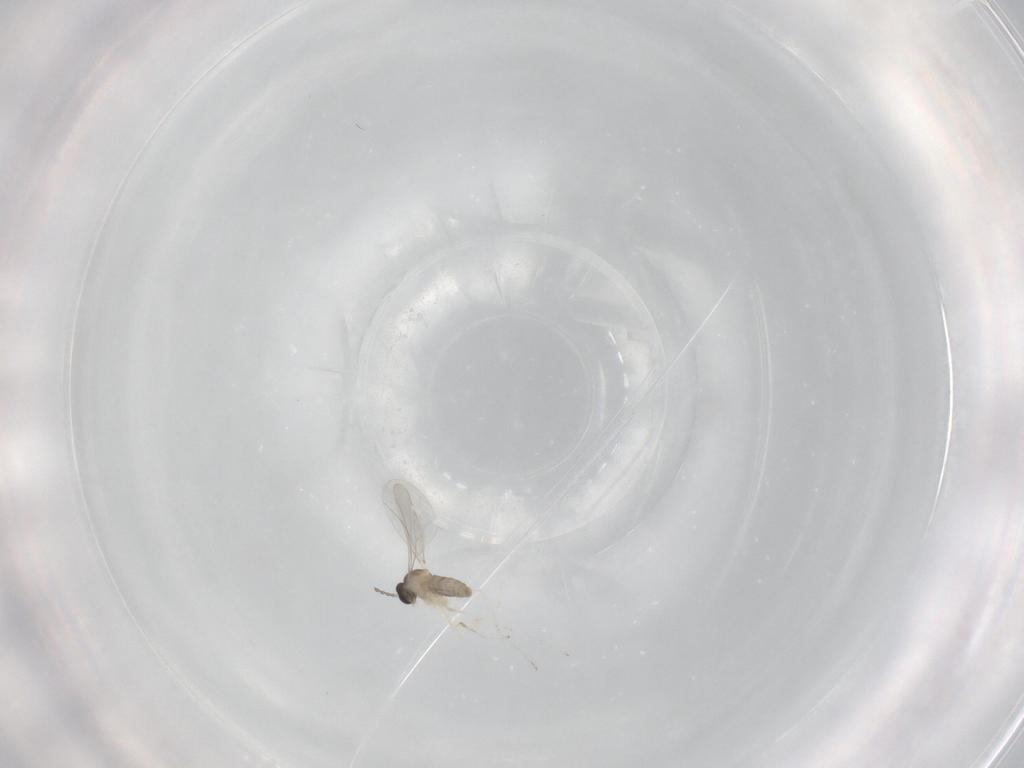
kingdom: Animalia
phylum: Arthropoda
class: Insecta
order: Diptera
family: Cecidomyiidae
